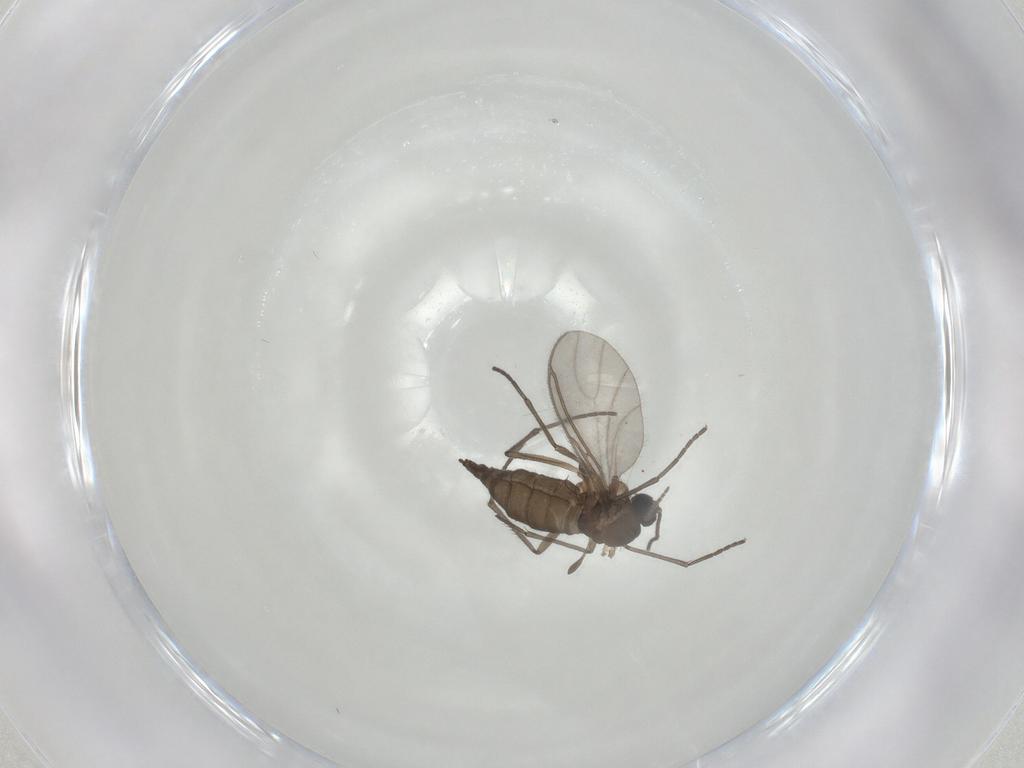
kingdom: Animalia
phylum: Arthropoda
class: Insecta
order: Diptera
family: Sciaridae
